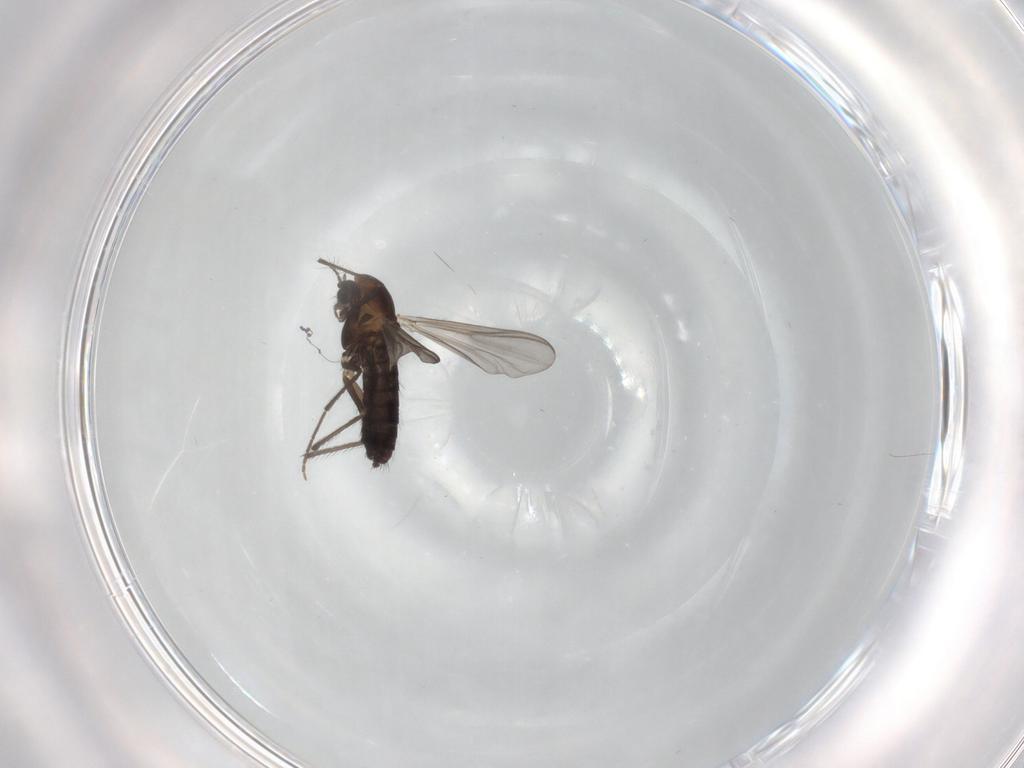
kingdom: Animalia
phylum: Arthropoda
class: Insecta
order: Diptera
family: Chironomidae
